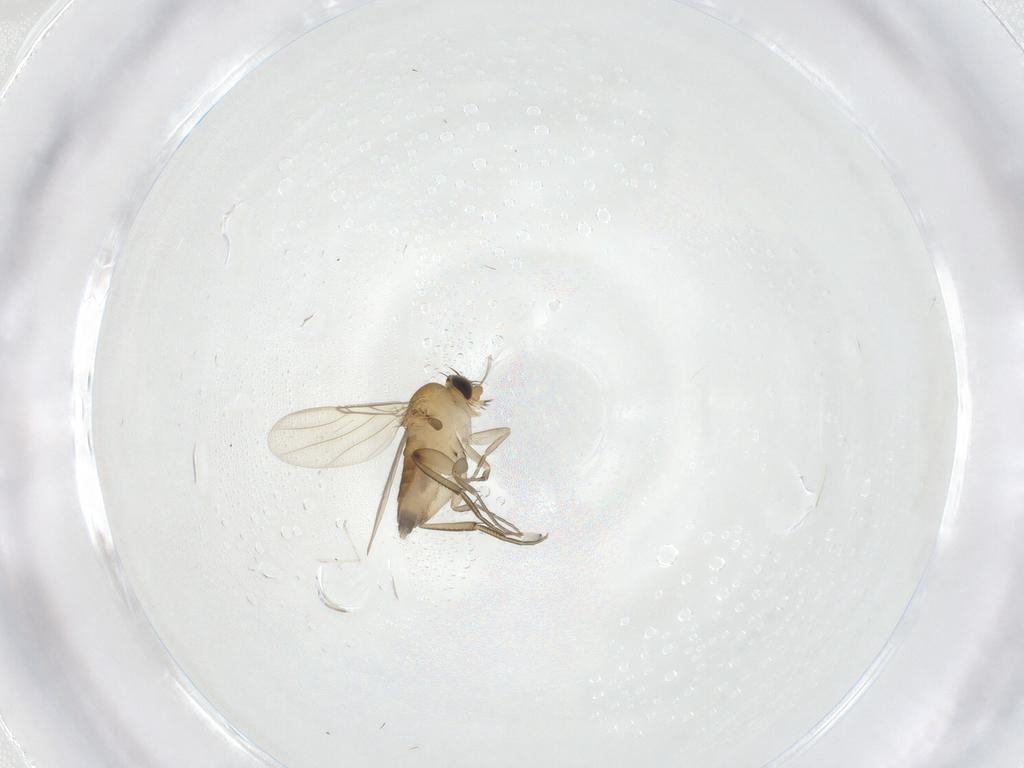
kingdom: Animalia
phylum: Arthropoda
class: Insecta
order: Diptera
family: Phoridae
